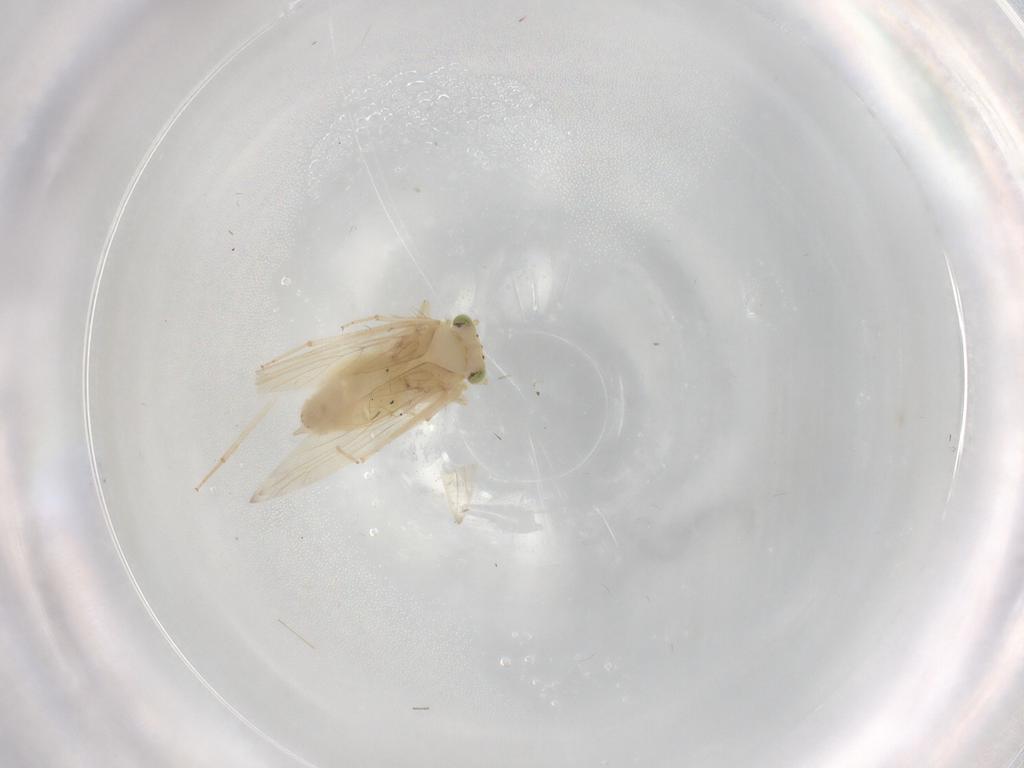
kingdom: Animalia
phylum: Arthropoda
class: Insecta
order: Psocodea
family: Lepidopsocidae
